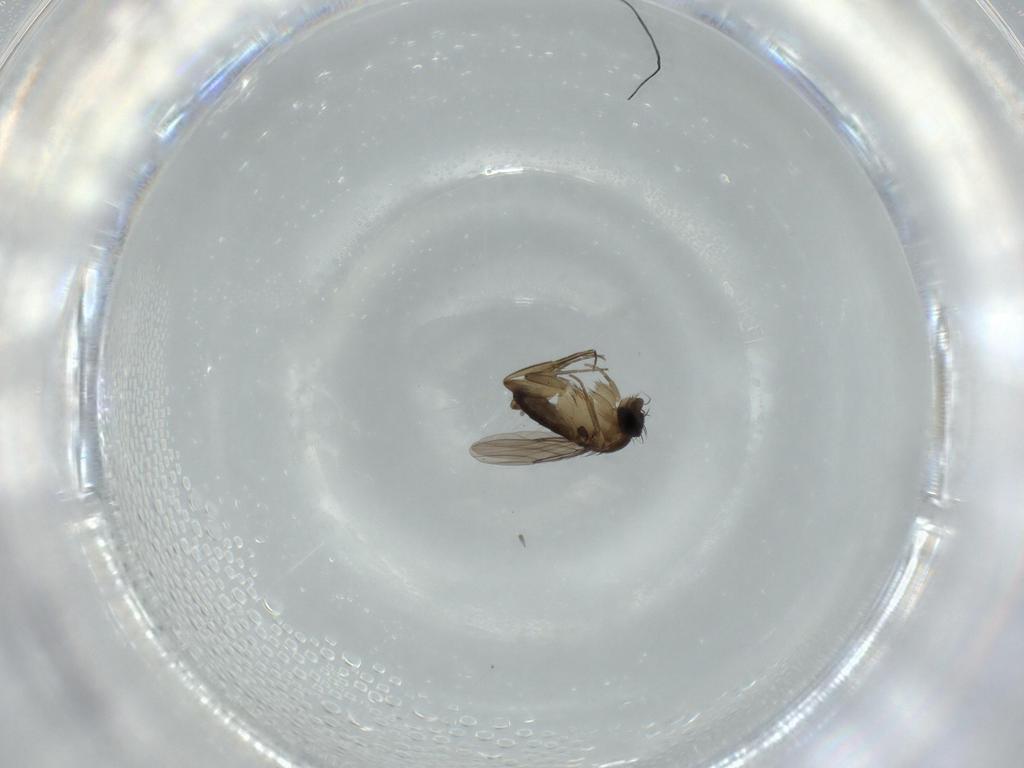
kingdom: Animalia
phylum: Arthropoda
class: Insecta
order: Diptera
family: Phoridae
